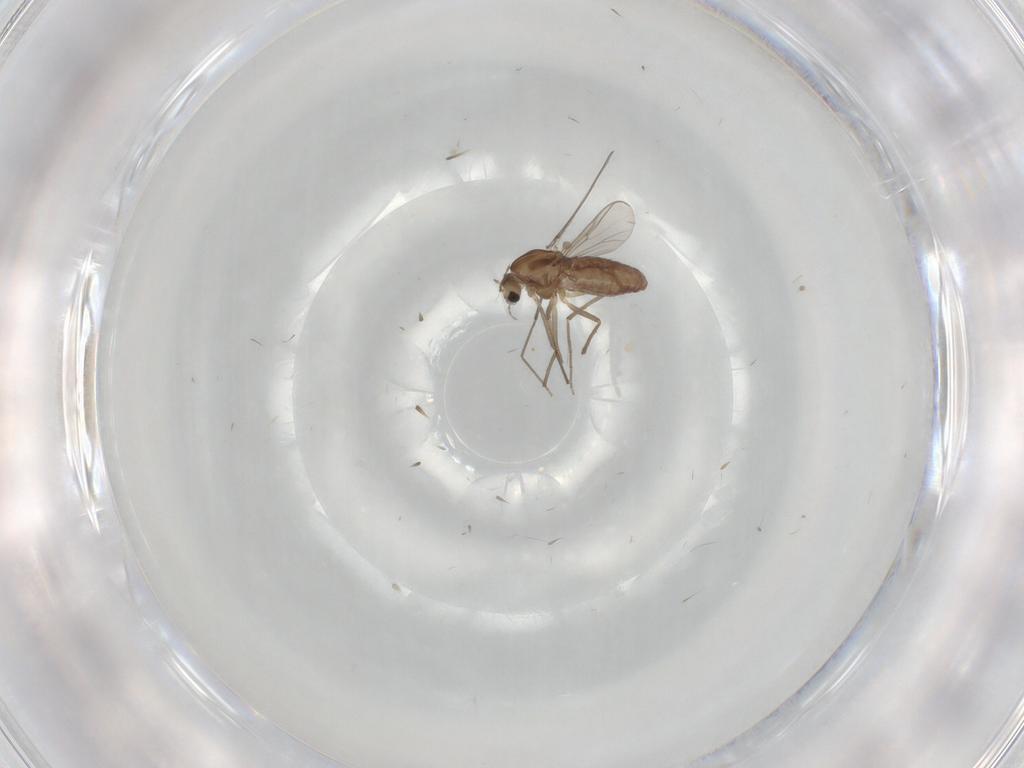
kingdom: Animalia
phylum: Arthropoda
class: Insecta
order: Diptera
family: Chironomidae
